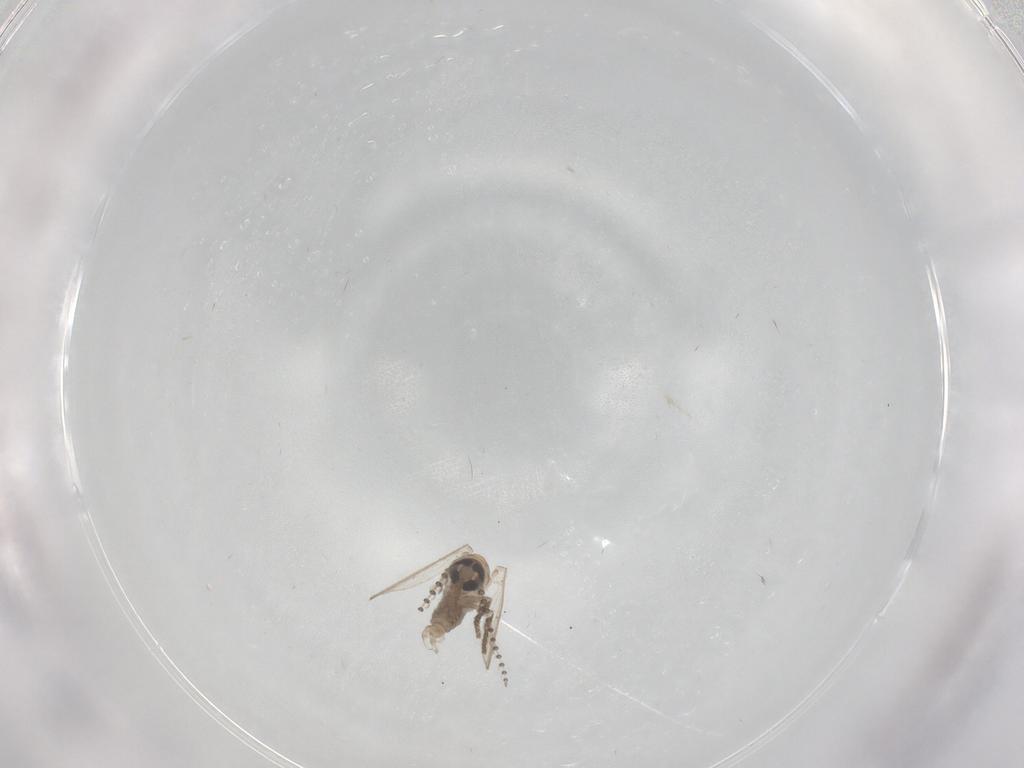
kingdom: Animalia
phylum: Arthropoda
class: Insecta
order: Diptera
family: Psychodidae
